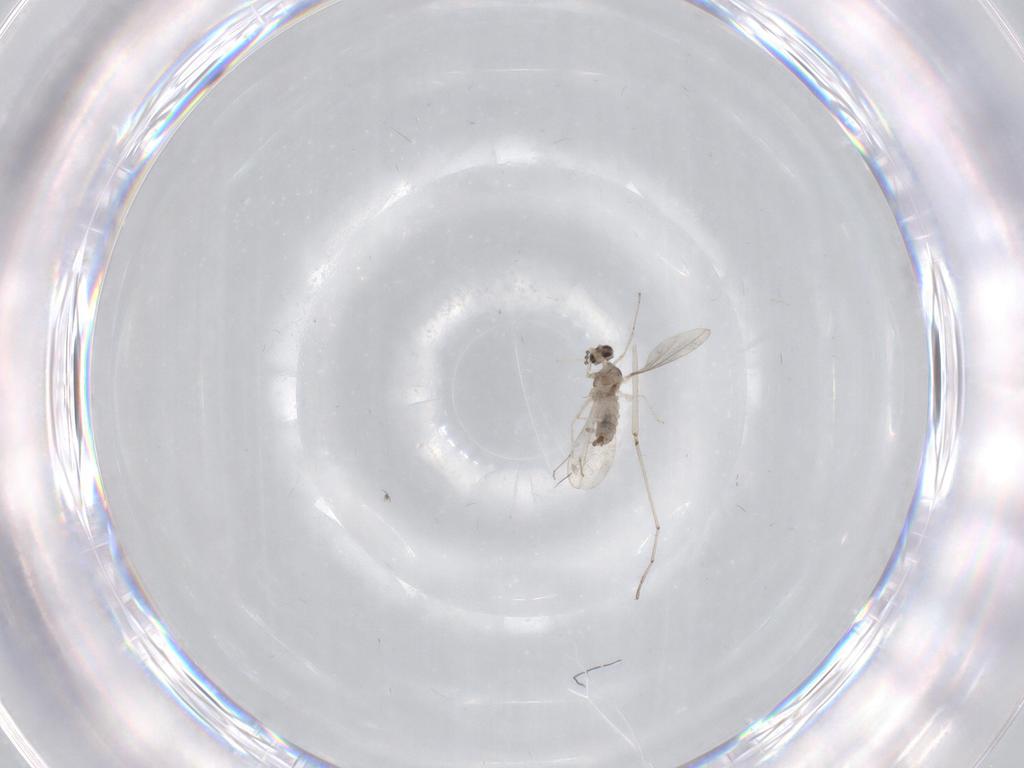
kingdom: Animalia
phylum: Arthropoda
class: Insecta
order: Diptera
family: Cecidomyiidae
